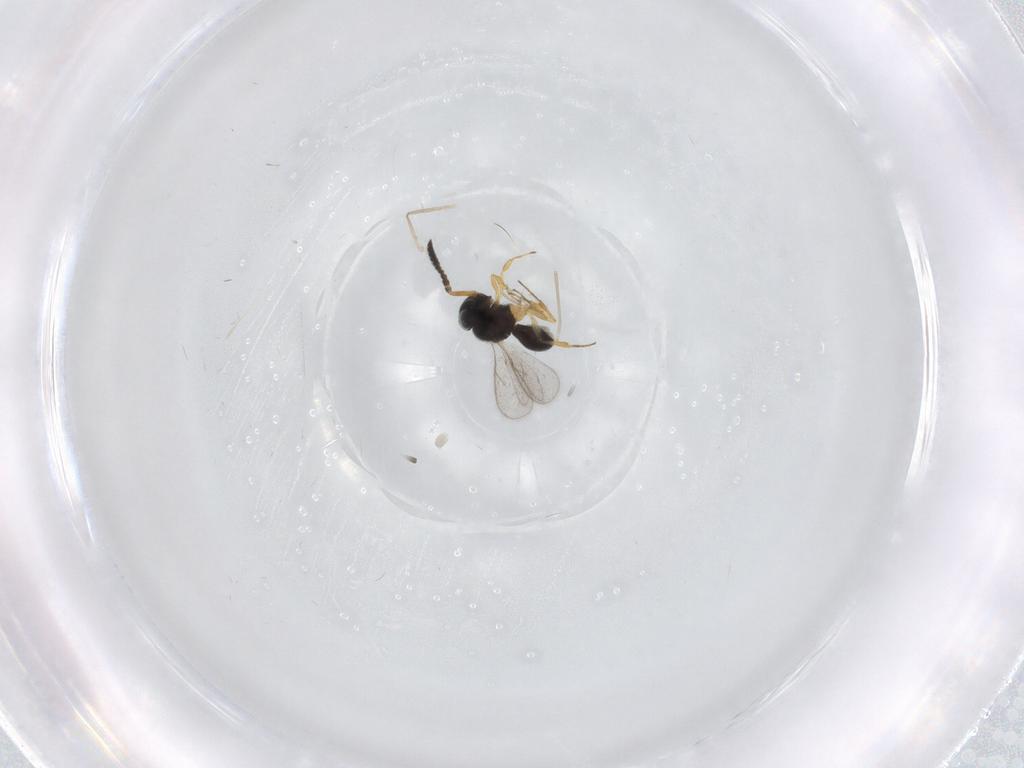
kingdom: Animalia
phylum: Arthropoda
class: Insecta
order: Hymenoptera
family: Scelionidae
